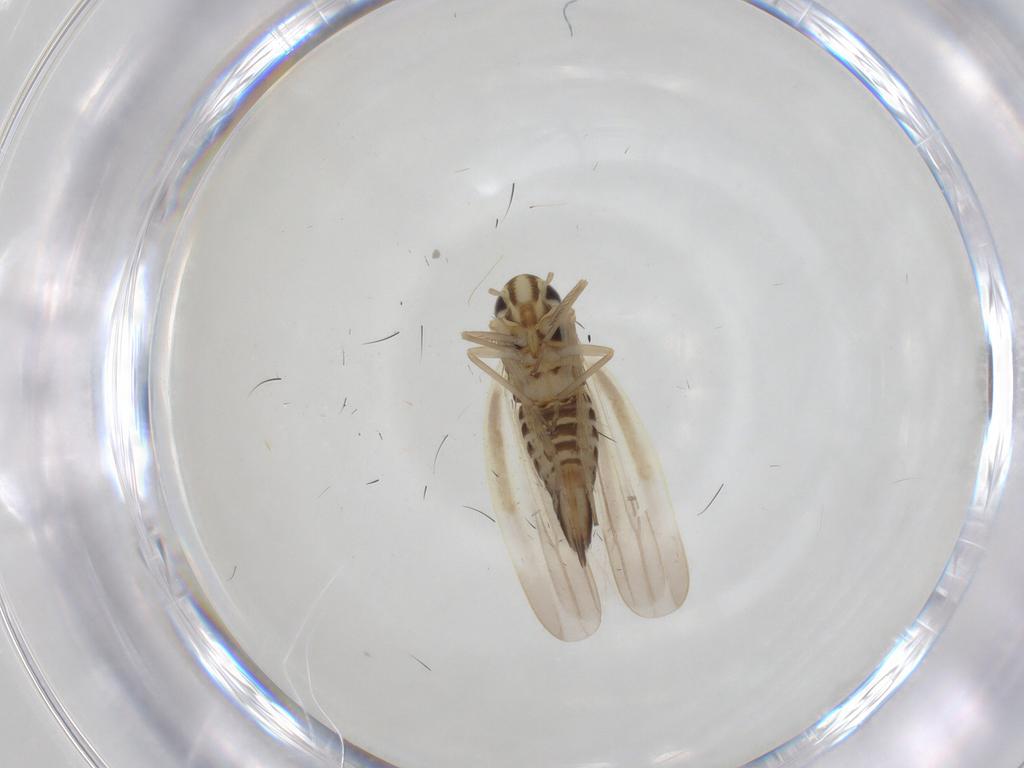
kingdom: Animalia
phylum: Arthropoda
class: Insecta
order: Hemiptera
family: Cicadellidae
